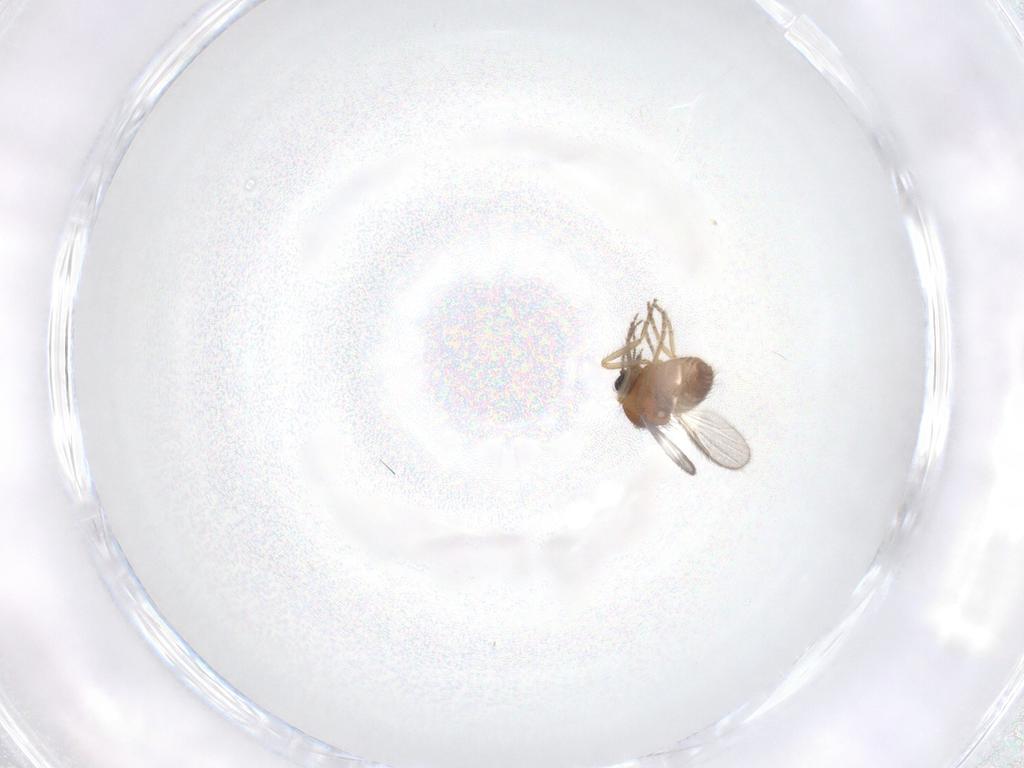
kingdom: Animalia
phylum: Arthropoda
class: Insecta
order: Diptera
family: Ceratopogonidae
